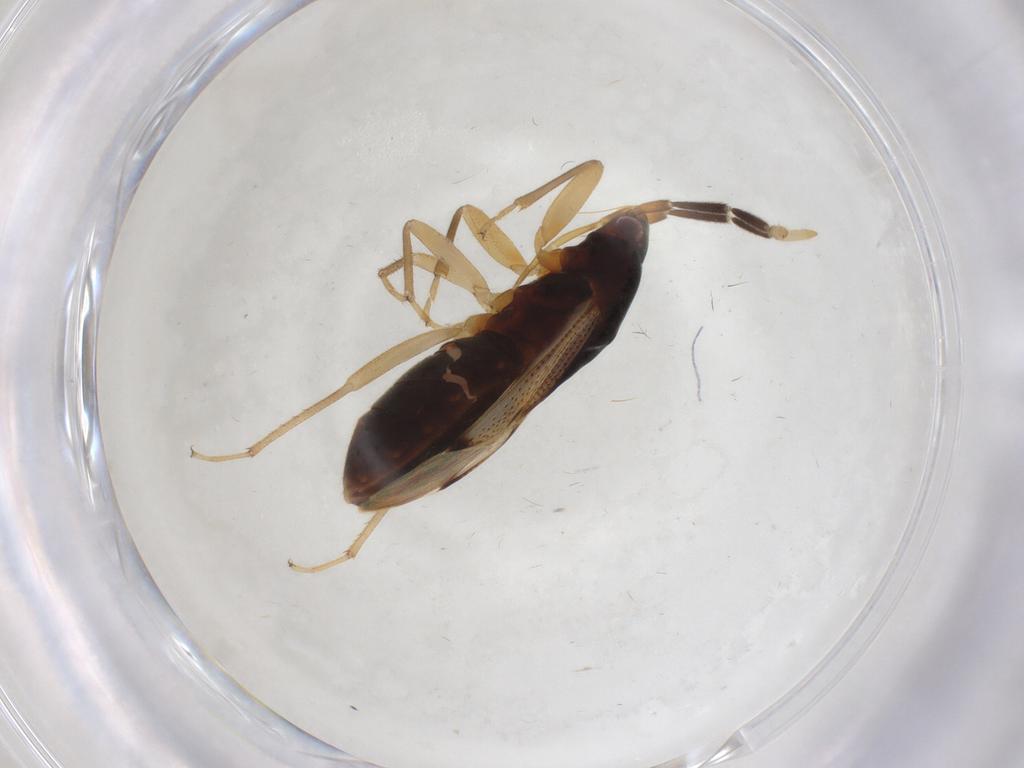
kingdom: Animalia
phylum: Arthropoda
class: Insecta
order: Hemiptera
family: Rhyparochromidae
